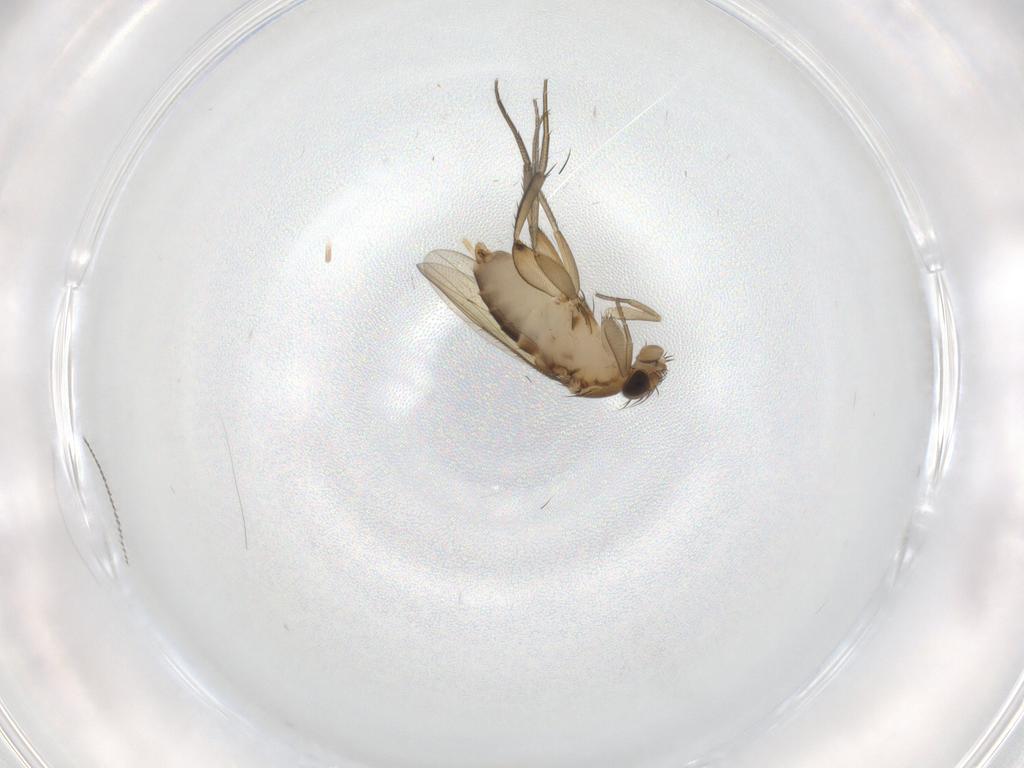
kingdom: Animalia
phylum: Arthropoda
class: Insecta
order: Diptera
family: Phoridae
